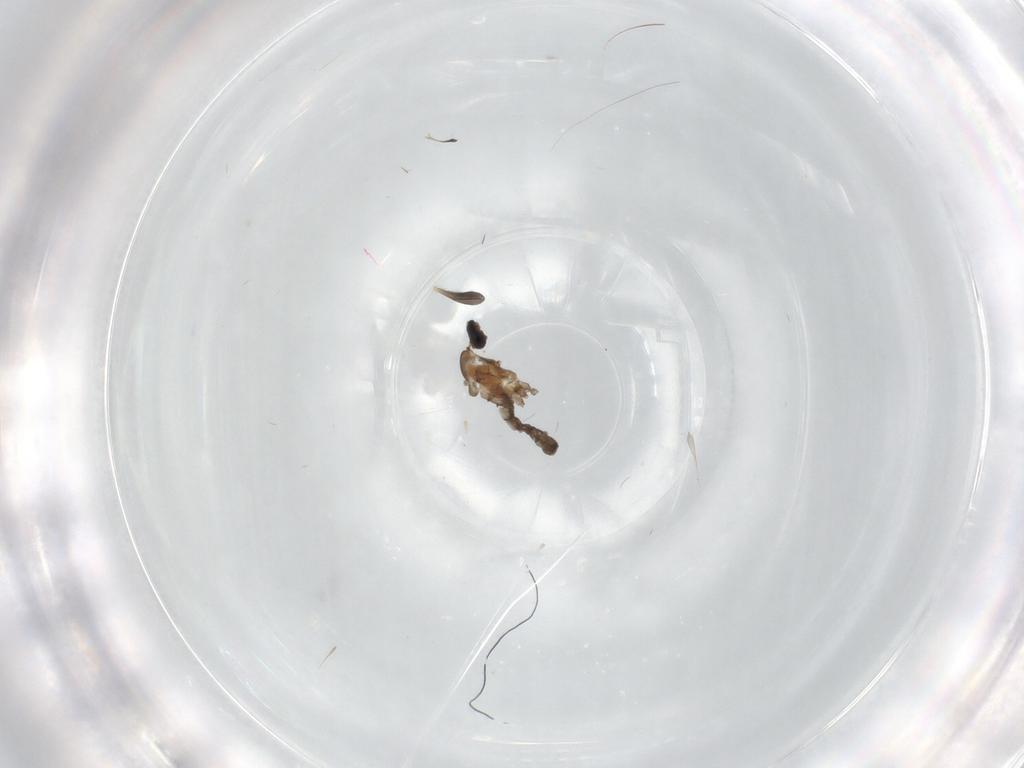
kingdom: Animalia
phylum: Arthropoda
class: Insecta
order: Diptera
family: Cecidomyiidae
